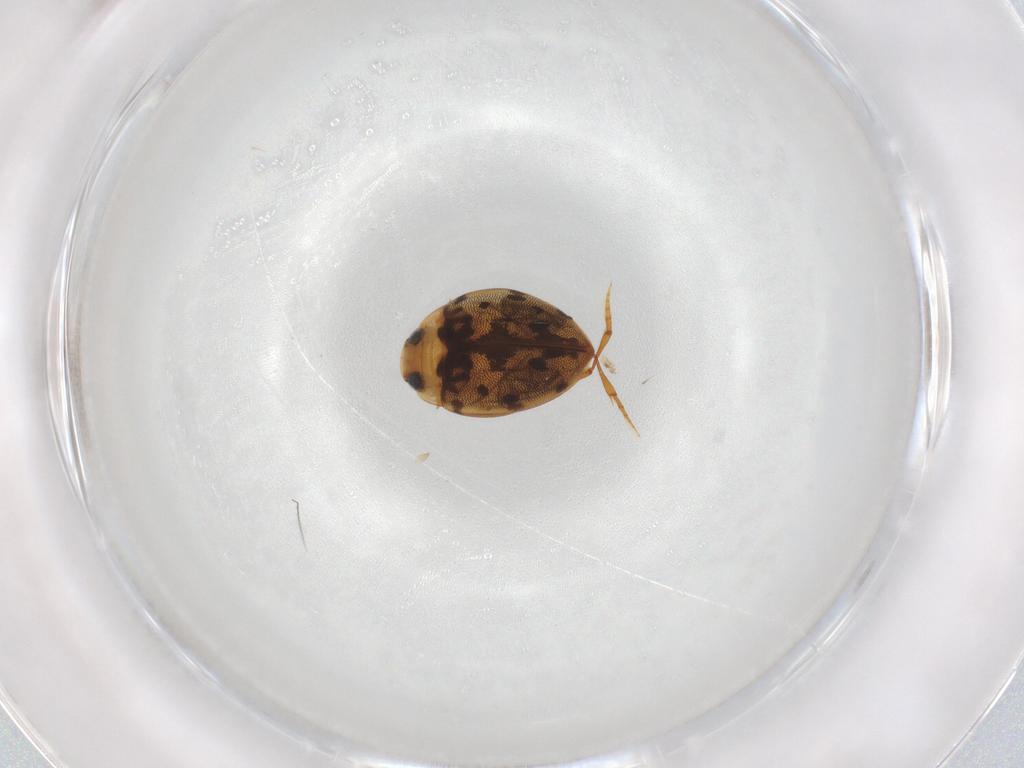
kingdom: Animalia
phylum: Arthropoda
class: Insecta
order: Coleoptera
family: Dytiscidae
